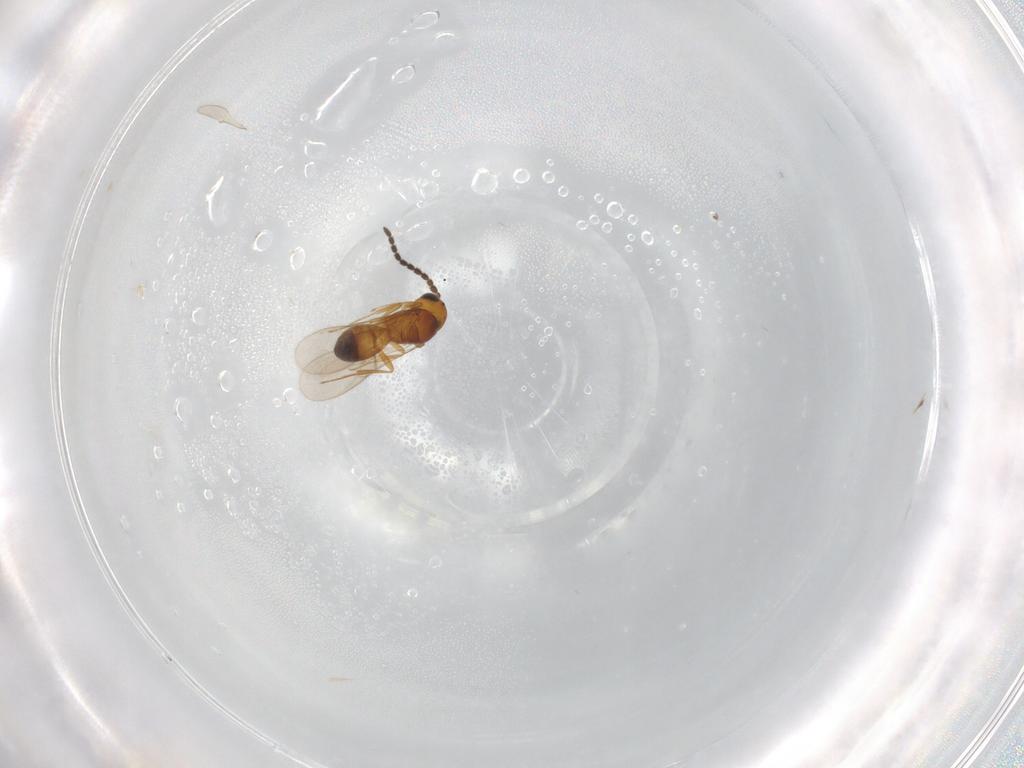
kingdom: Animalia
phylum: Arthropoda
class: Insecta
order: Hymenoptera
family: Scelionidae
